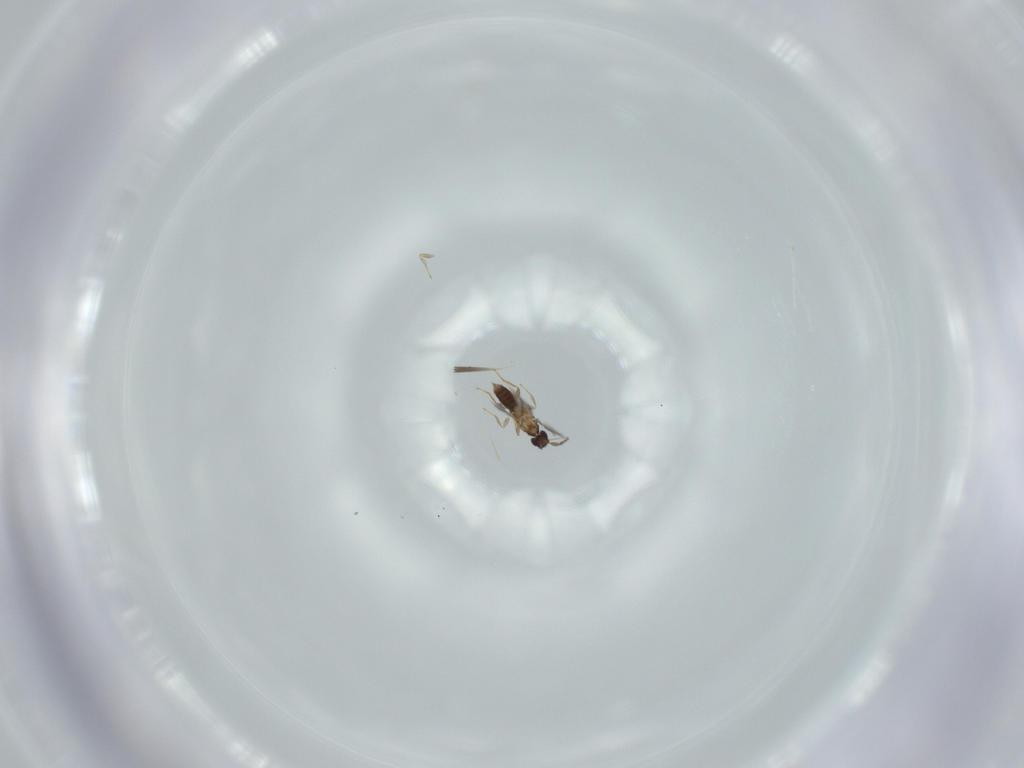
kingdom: Animalia
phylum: Arthropoda
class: Insecta
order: Hymenoptera
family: Mymaridae
